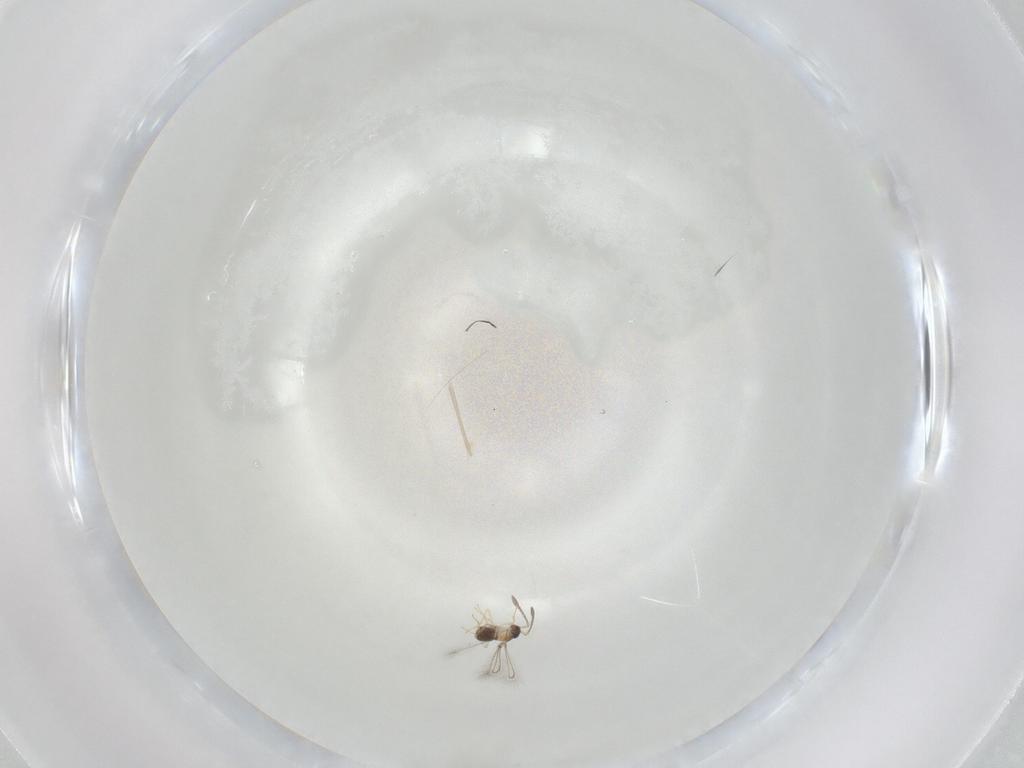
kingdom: Animalia
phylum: Arthropoda
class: Insecta
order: Hymenoptera
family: Mymaridae
